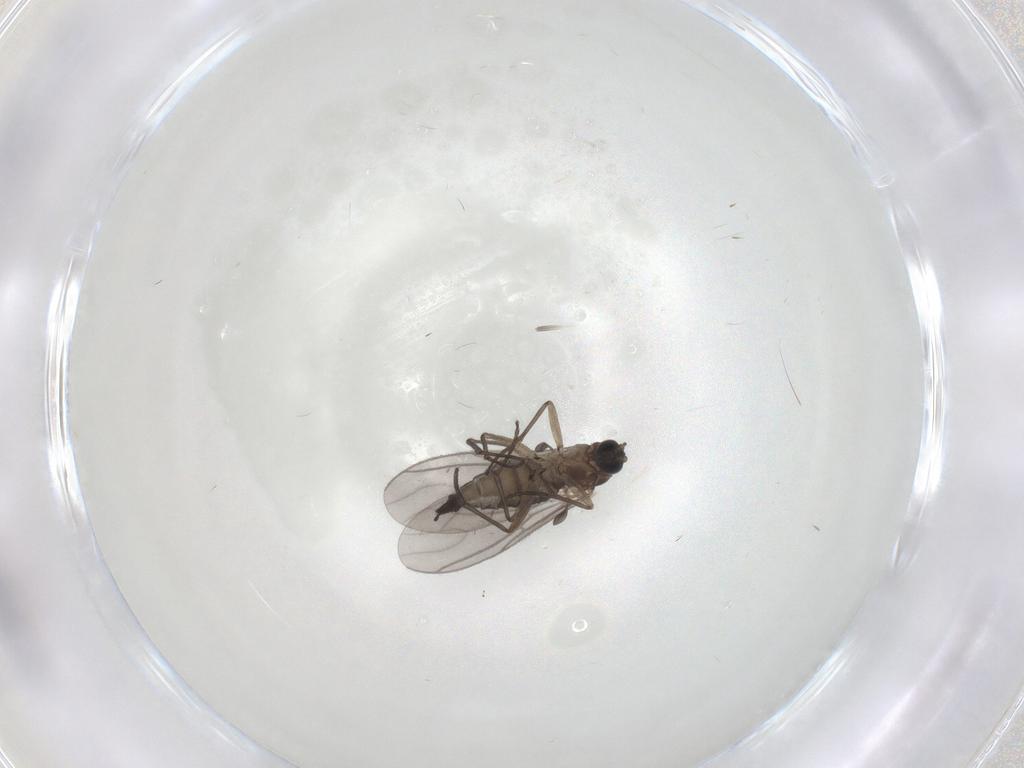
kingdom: Animalia
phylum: Arthropoda
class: Insecta
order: Diptera
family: Sciaridae
